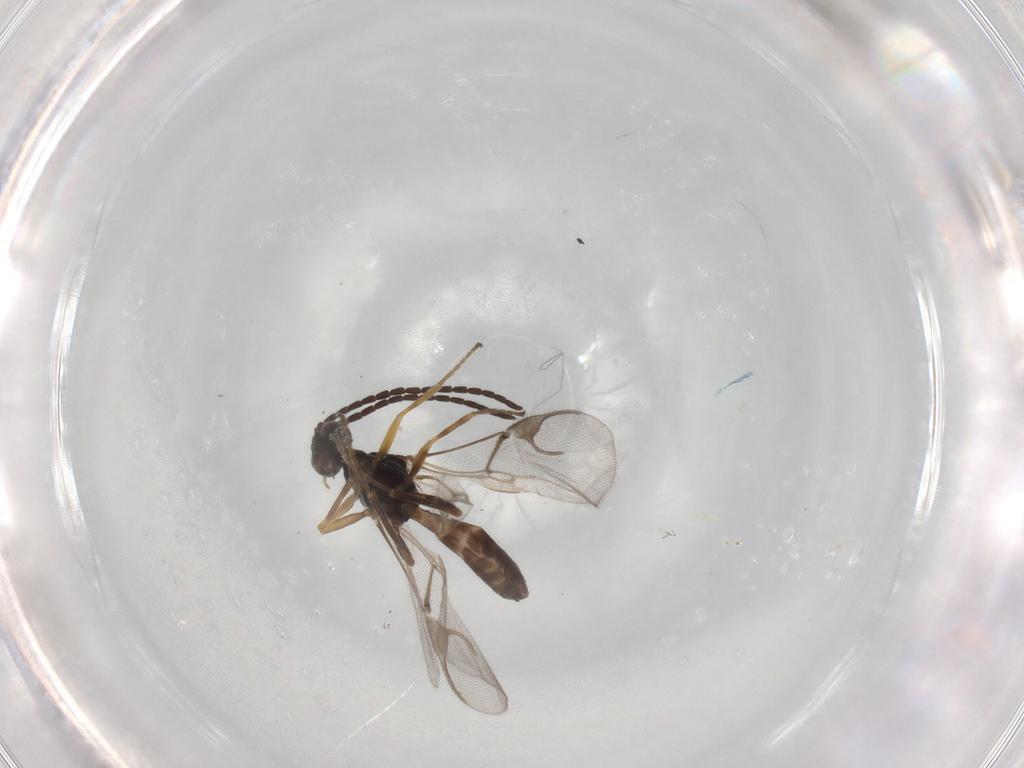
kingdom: Animalia
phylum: Arthropoda
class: Insecta
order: Hymenoptera
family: Braconidae
